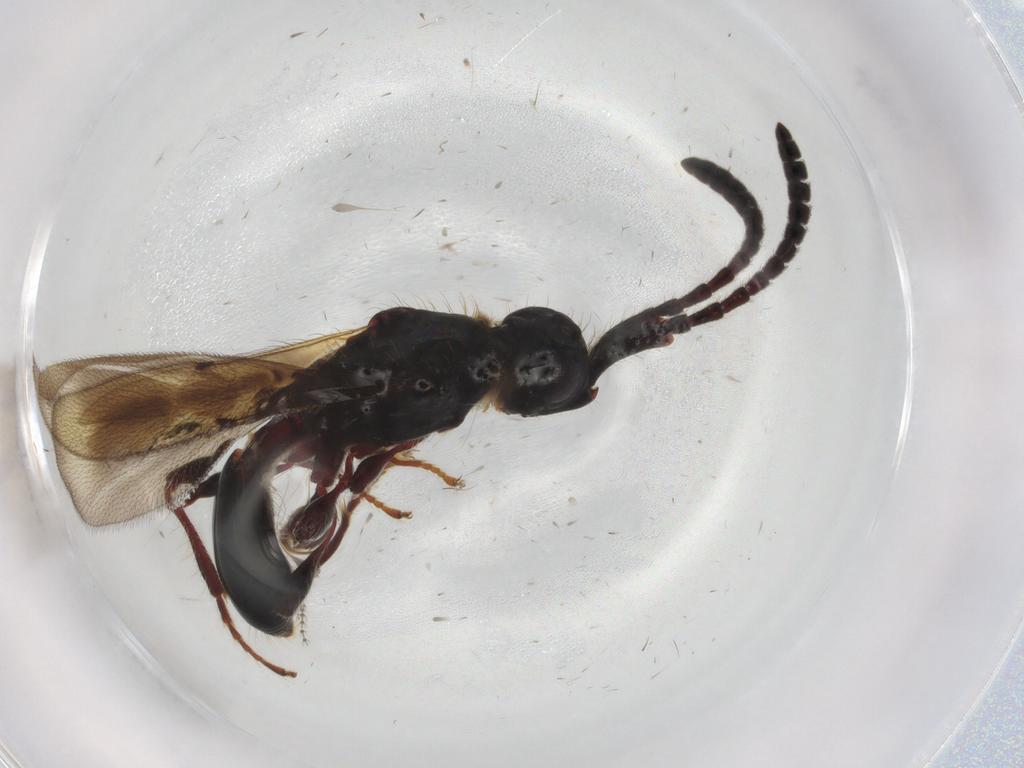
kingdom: Animalia
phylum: Arthropoda
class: Insecta
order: Hymenoptera
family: Diapriidae
